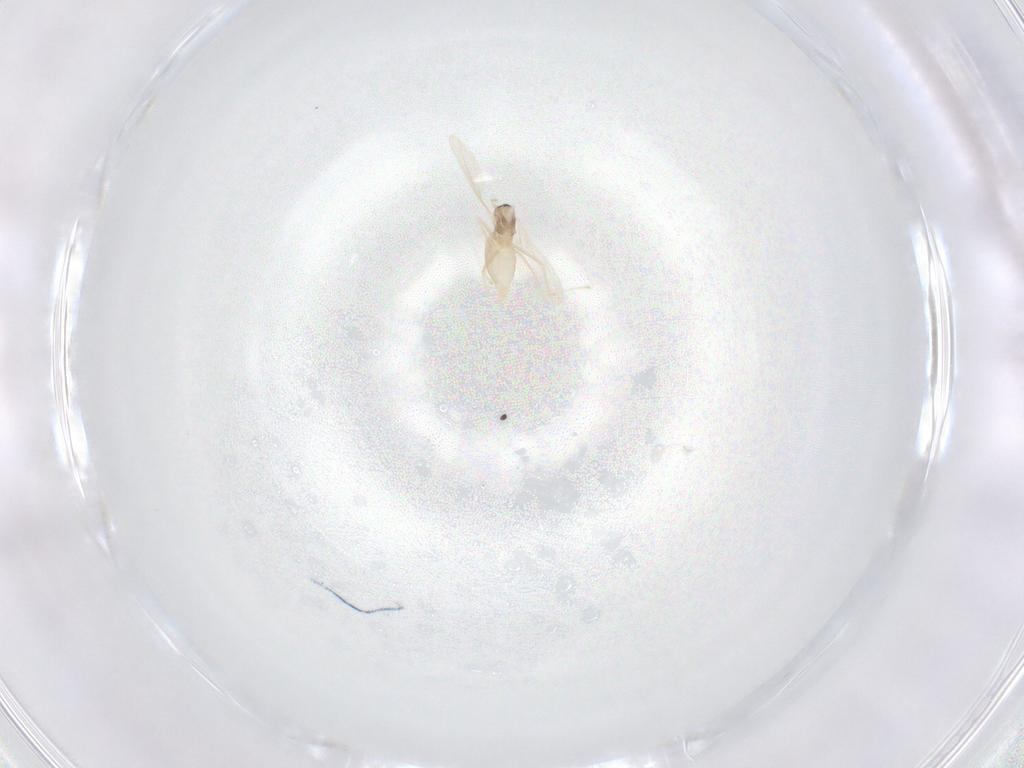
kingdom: Animalia
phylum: Arthropoda
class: Insecta
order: Diptera
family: Cecidomyiidae
